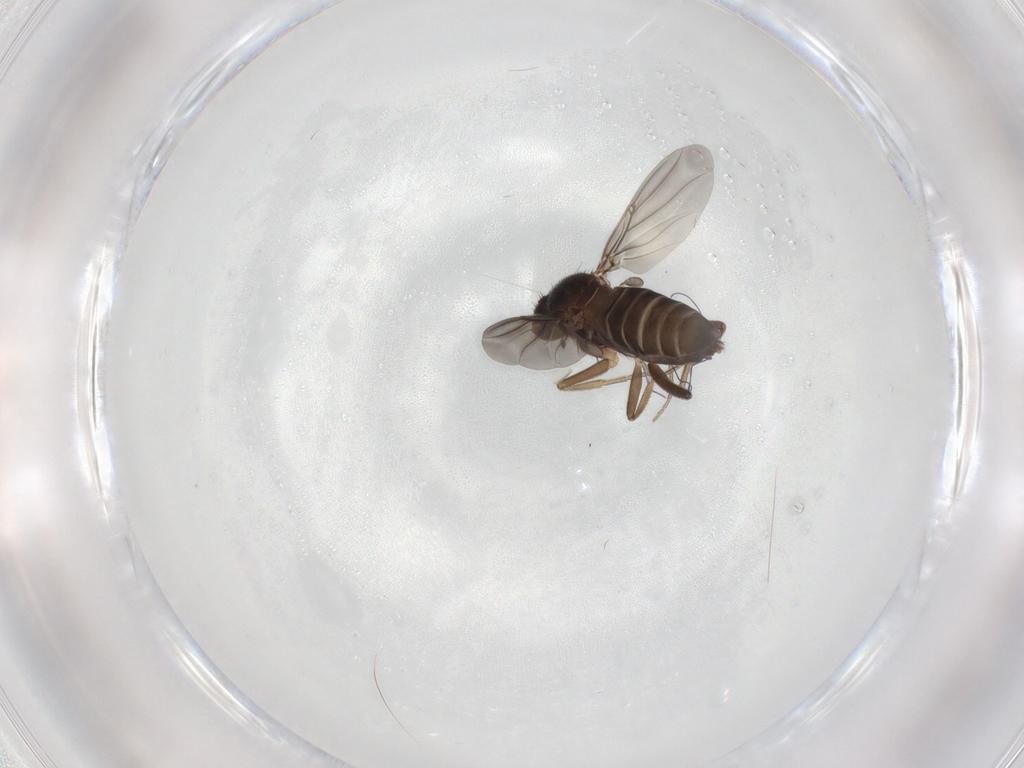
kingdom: Animalia
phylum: Arthropoda
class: Insecta
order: Diptera
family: Phoridae
